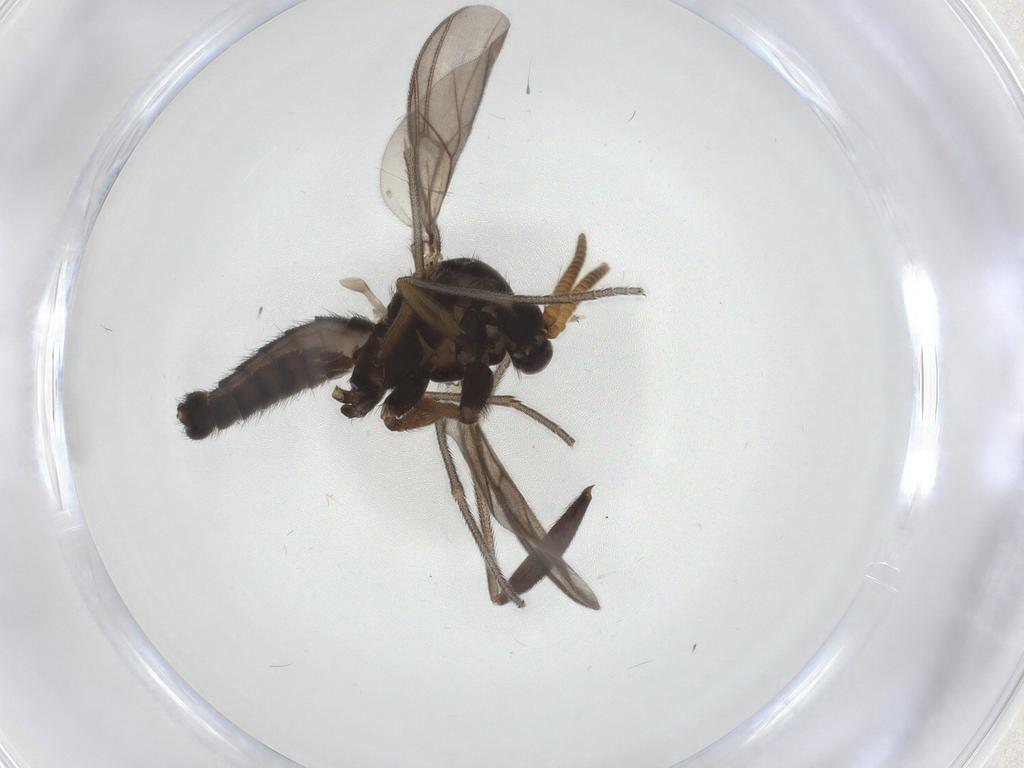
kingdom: Animalia
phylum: Arthropoda
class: Insecta
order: Diptera
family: Mycetophilidae
